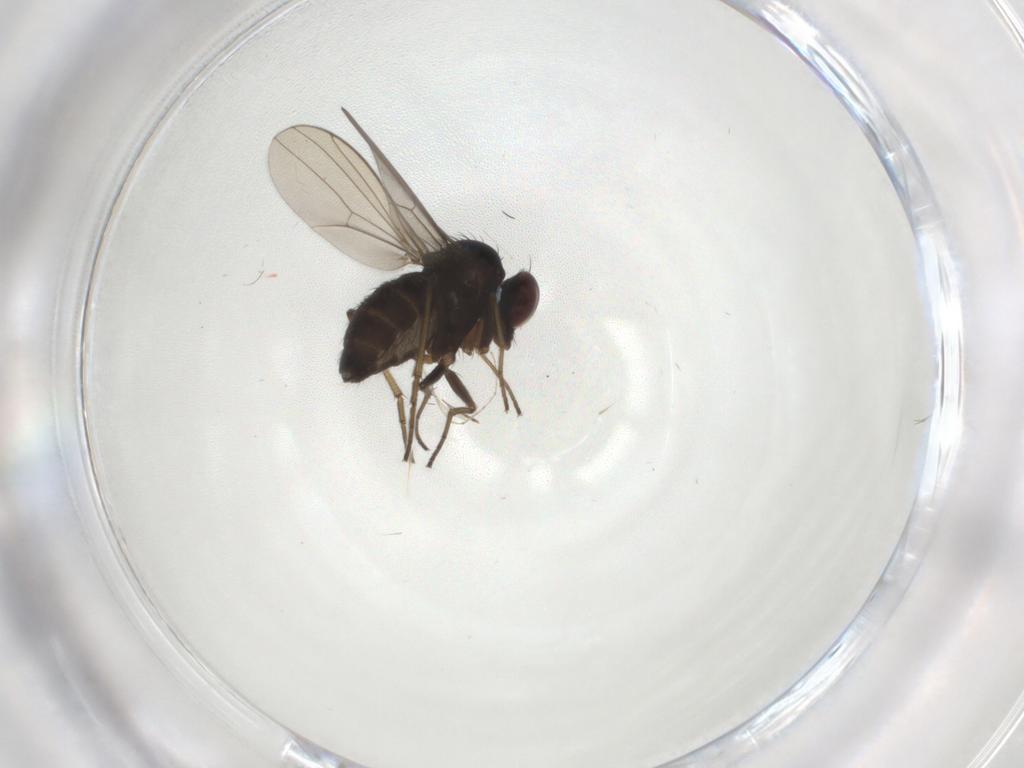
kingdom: Animalia
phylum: Arthropoda
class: Insecta
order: Diptera
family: Dolichopodidae
